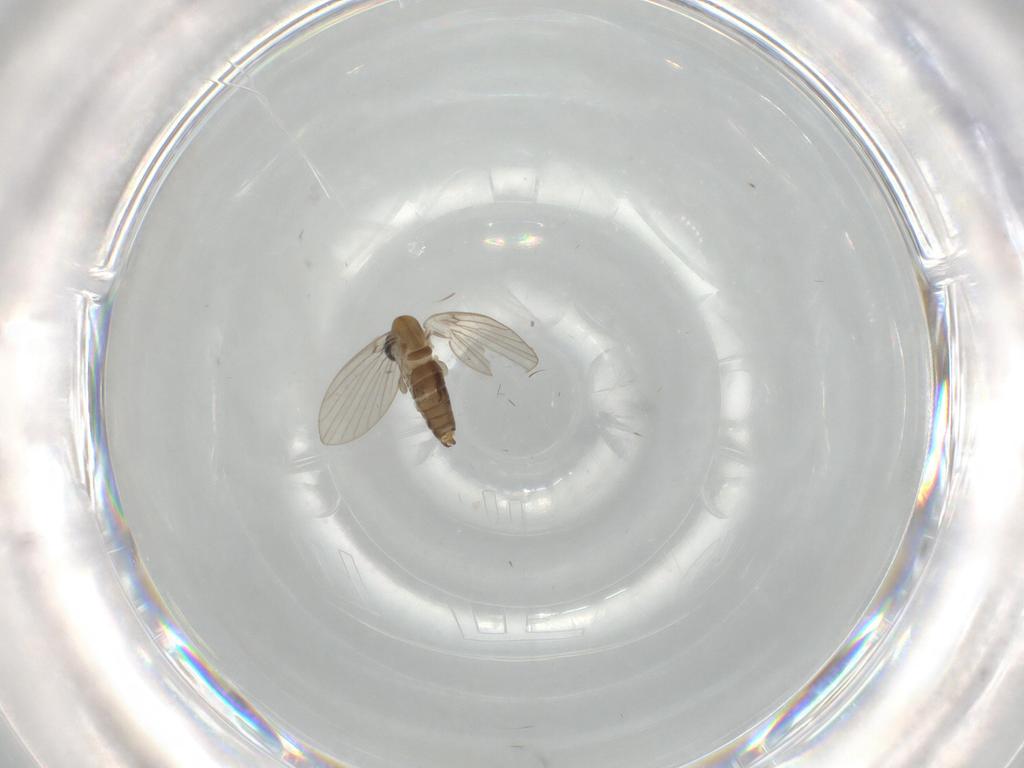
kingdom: Animalia
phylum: Arthropoda
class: Insecta
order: Diptera
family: Psychodidae
